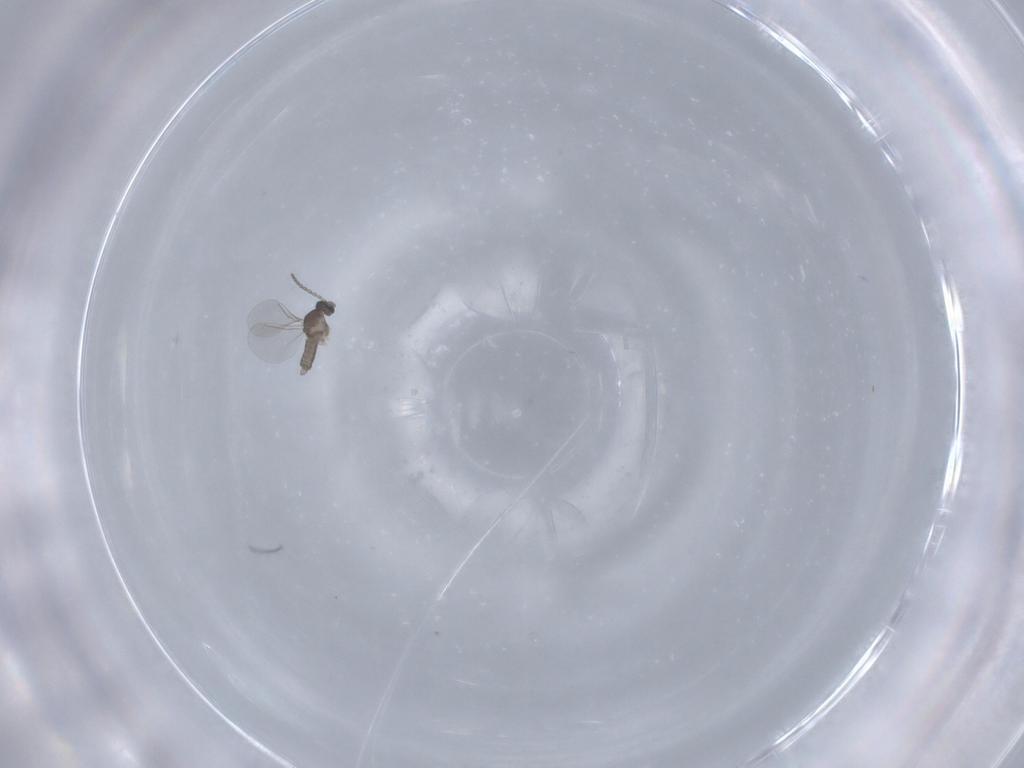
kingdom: Animalia
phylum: Arthropoda
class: Insecta
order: Diptera
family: Cecidomyiidae
